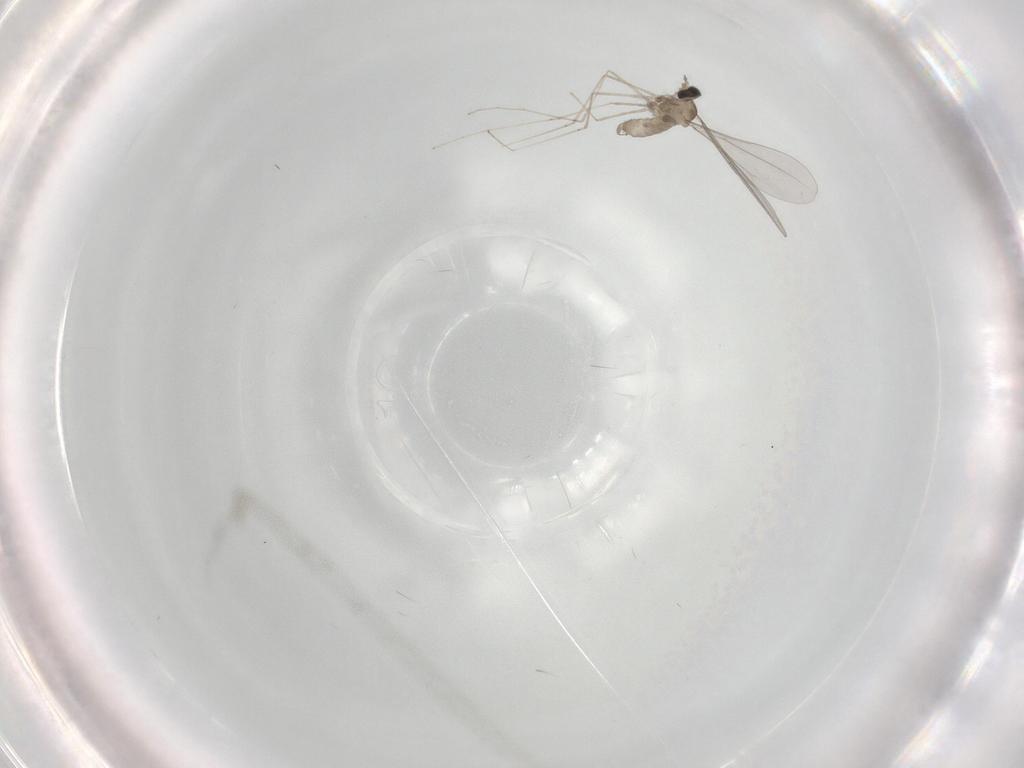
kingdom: Animalia
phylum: Arthropoda
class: Insecta
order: Diptera
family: Cecidomyiidae
